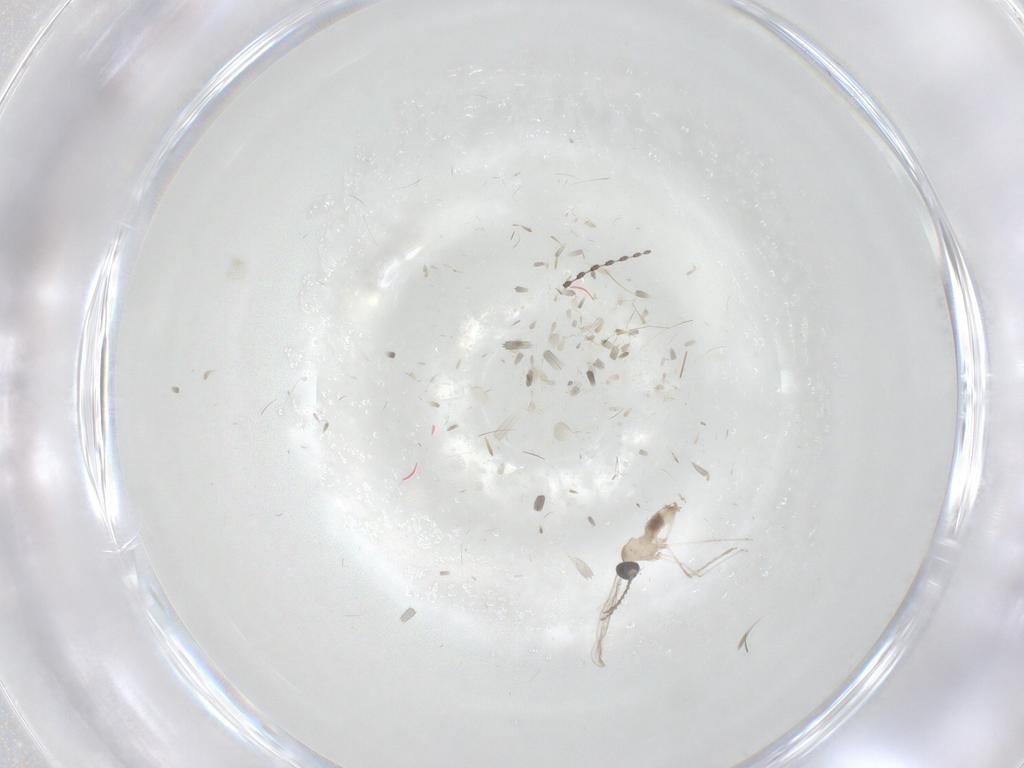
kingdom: Animalia
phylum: Arthropoda
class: Insecta
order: Diptera
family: Cecidomyiidae
